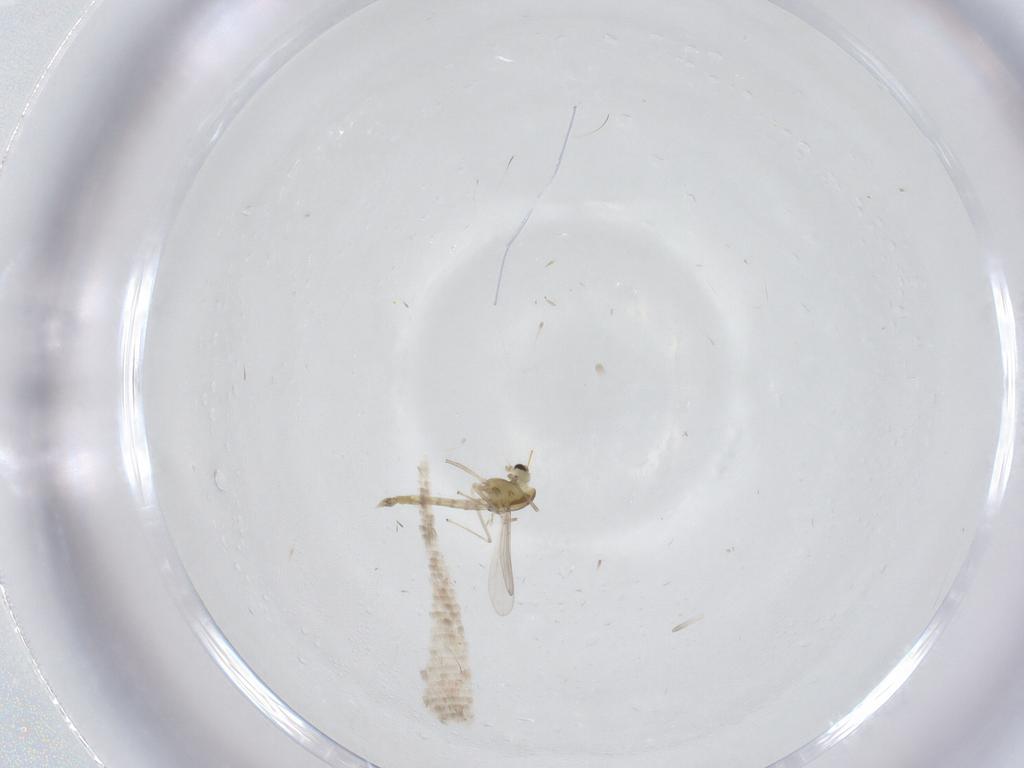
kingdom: Animalia
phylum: Arthropoda
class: Insecta
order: Diptera
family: Chironomidae
